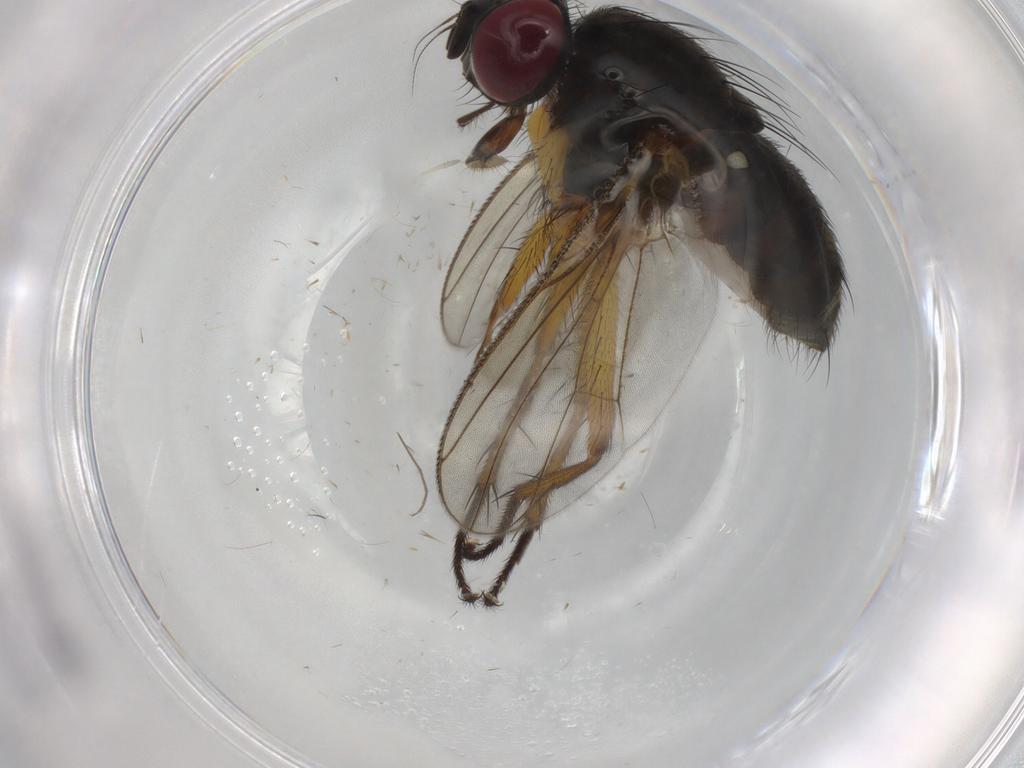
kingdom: Animalia
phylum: Arthropoda
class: Insecta
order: Diptera
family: Muscidae
